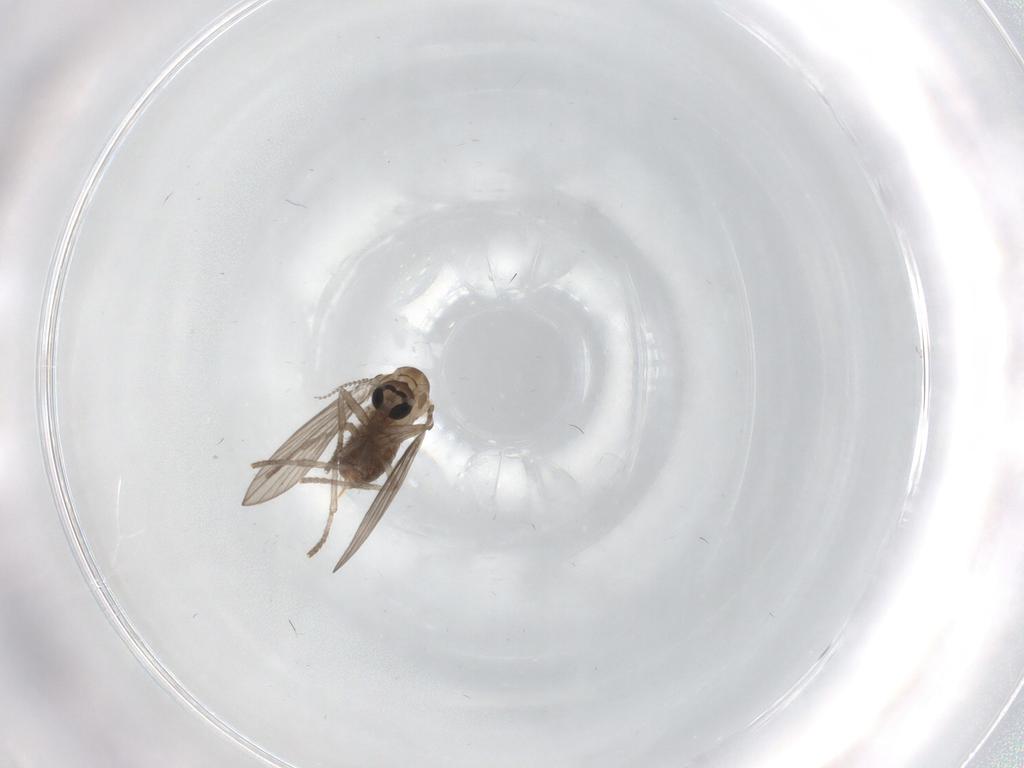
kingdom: Animalia
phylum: Arthropoda
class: Insecta
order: Diptera
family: Psychodidae
